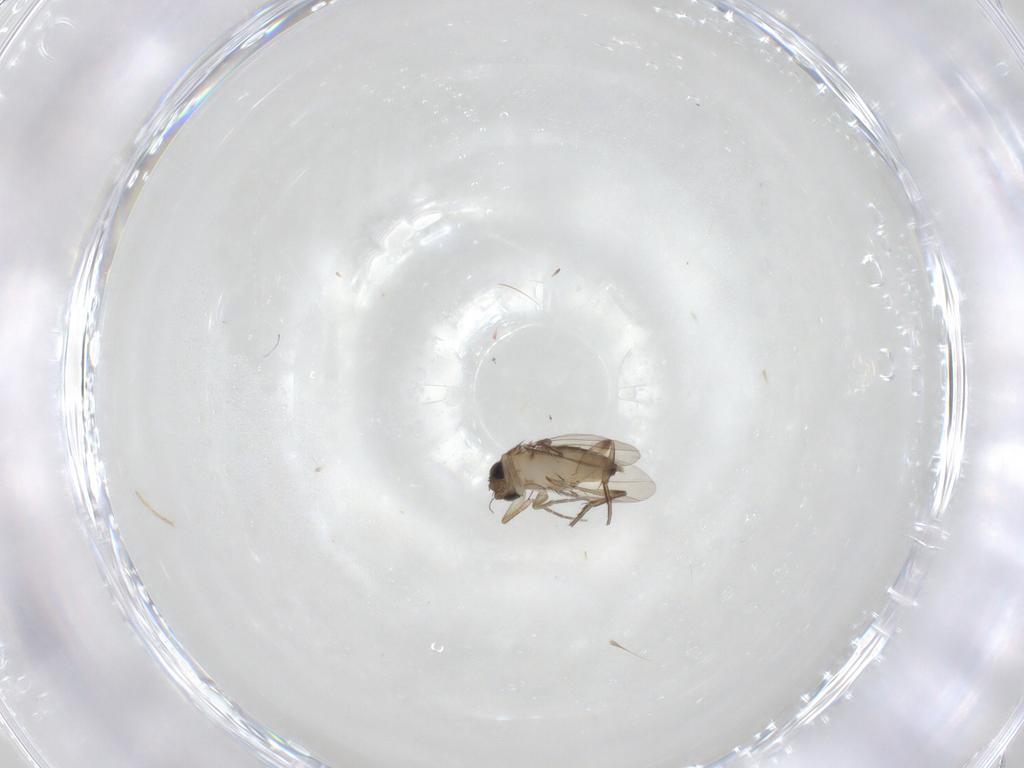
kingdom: Animalia
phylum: Arthropoda
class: Insecta
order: Diptera
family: Phoridae
